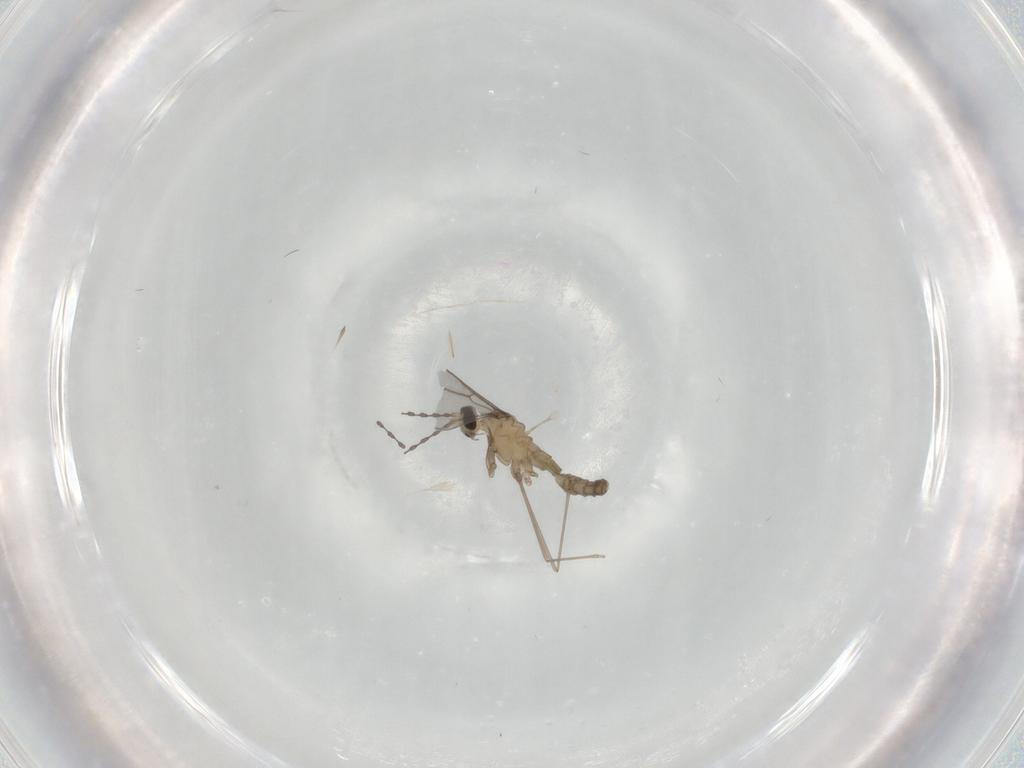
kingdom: Animalia
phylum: Arthropoda
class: Insecta
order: Diptera
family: Cecidomyiidae
